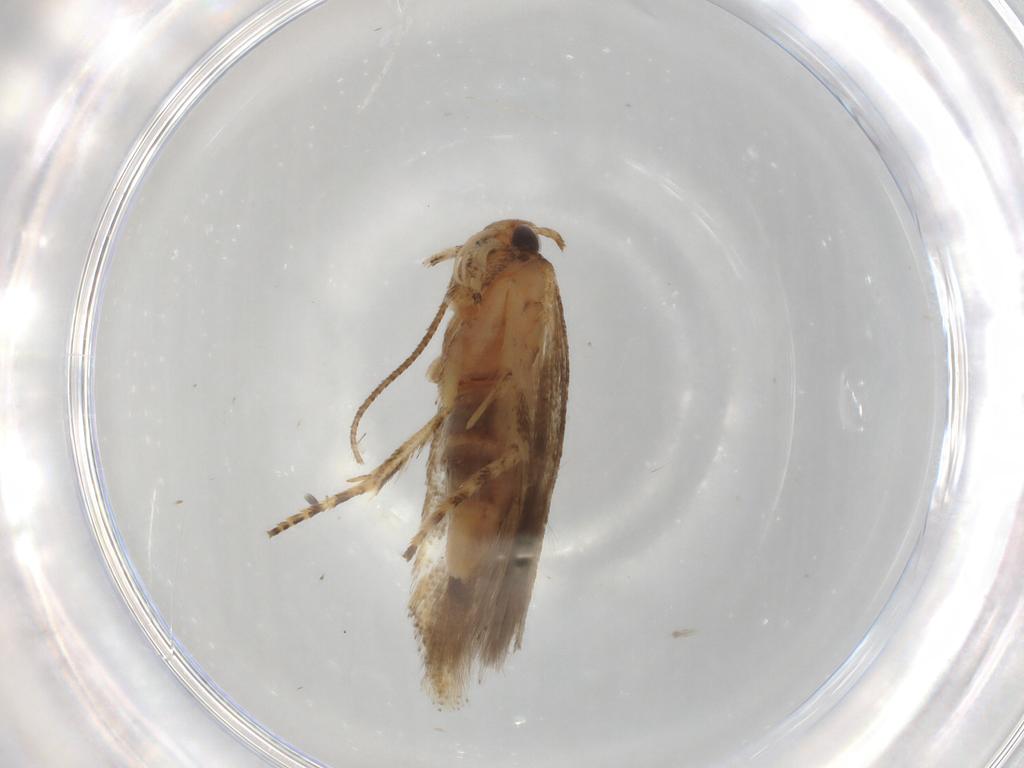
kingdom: Animalia
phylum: Arthropoda
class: Insecta
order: Lepidoptera
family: Gelechiidae
